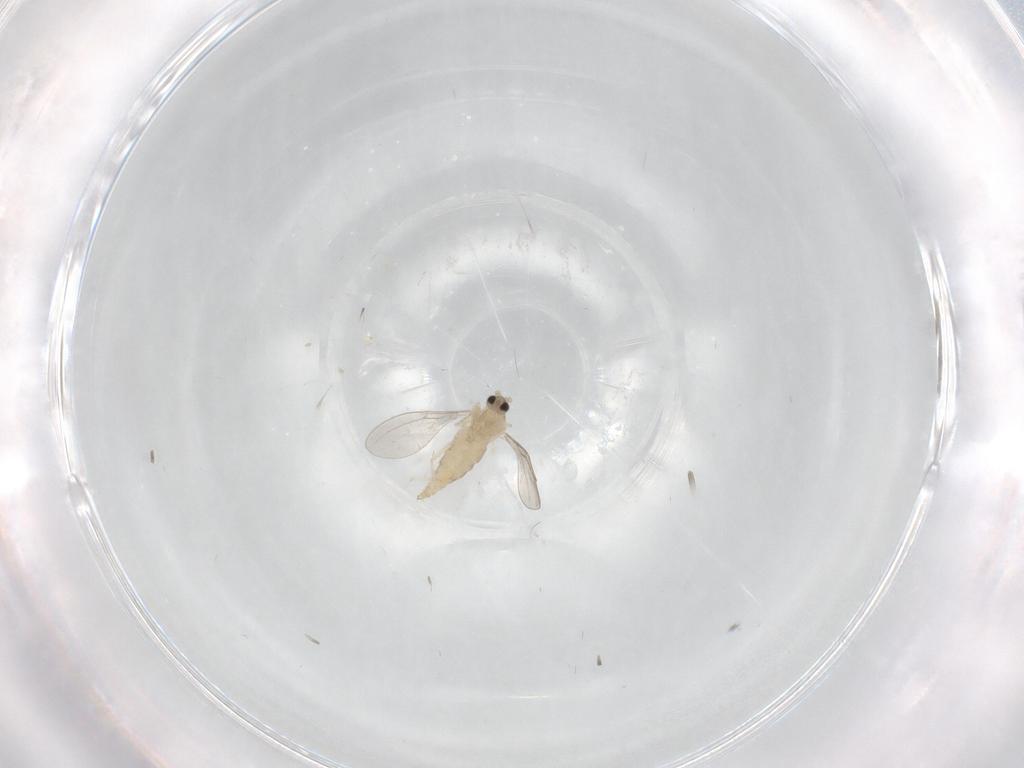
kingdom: Animalia
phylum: Arthropoda
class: Insecta
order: Diptera
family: Cecidomyiidae
